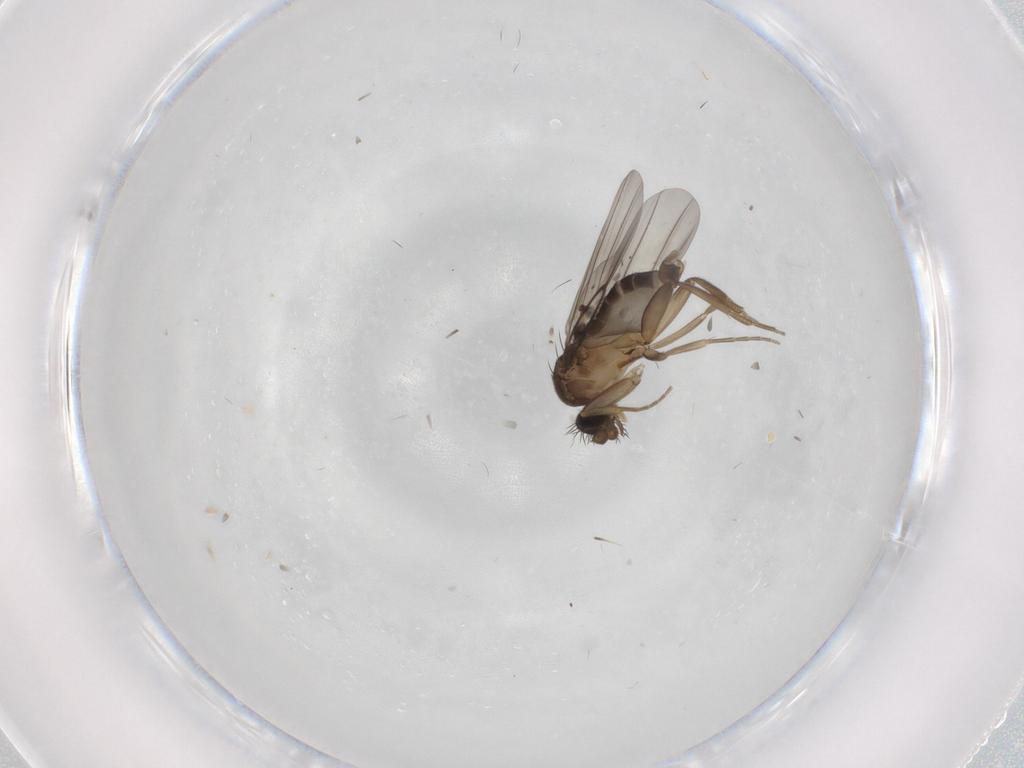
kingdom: Animalia
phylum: Arthropoda
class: Insecta
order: Diptera
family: Phoridae
